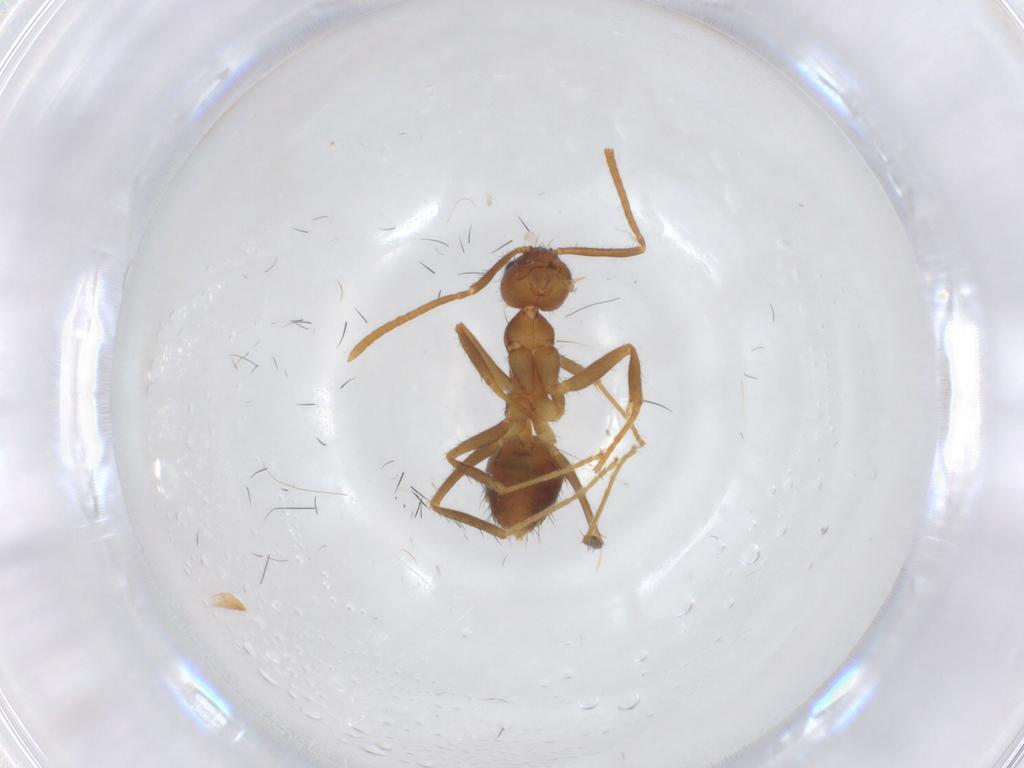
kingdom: Animalia
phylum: Arthropoda
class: Insecta
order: Hymenoptera
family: Formicidae
